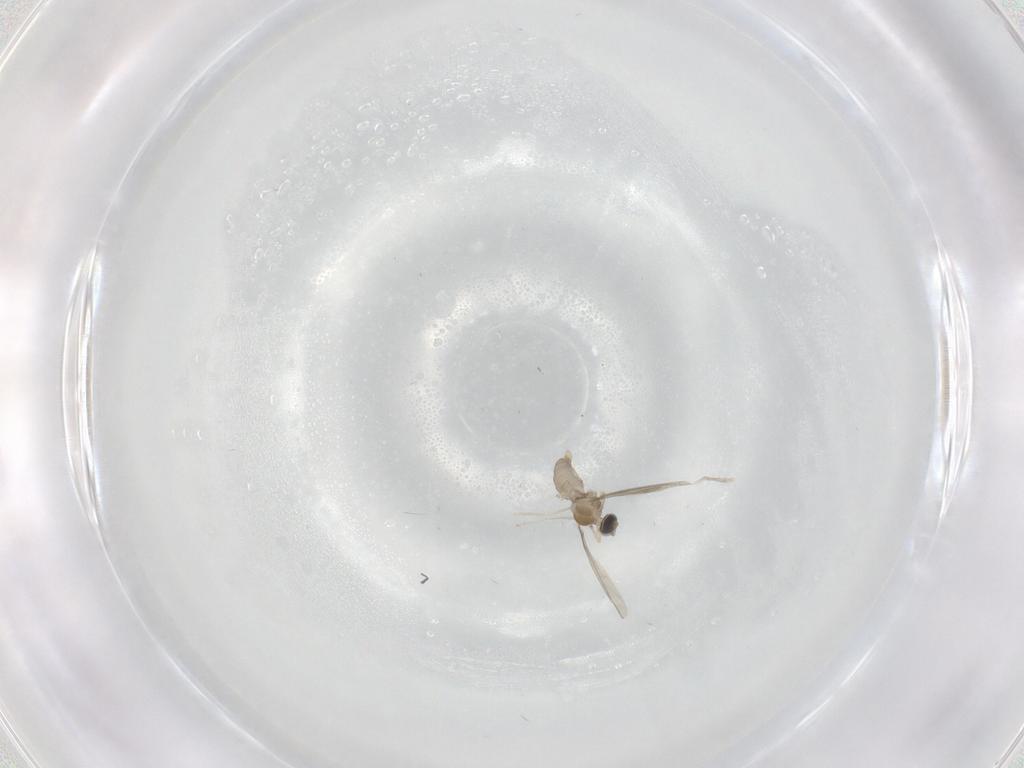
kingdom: Animalia
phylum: Arthropoda
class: Insecta
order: Diptera
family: Cecidomyiidae
